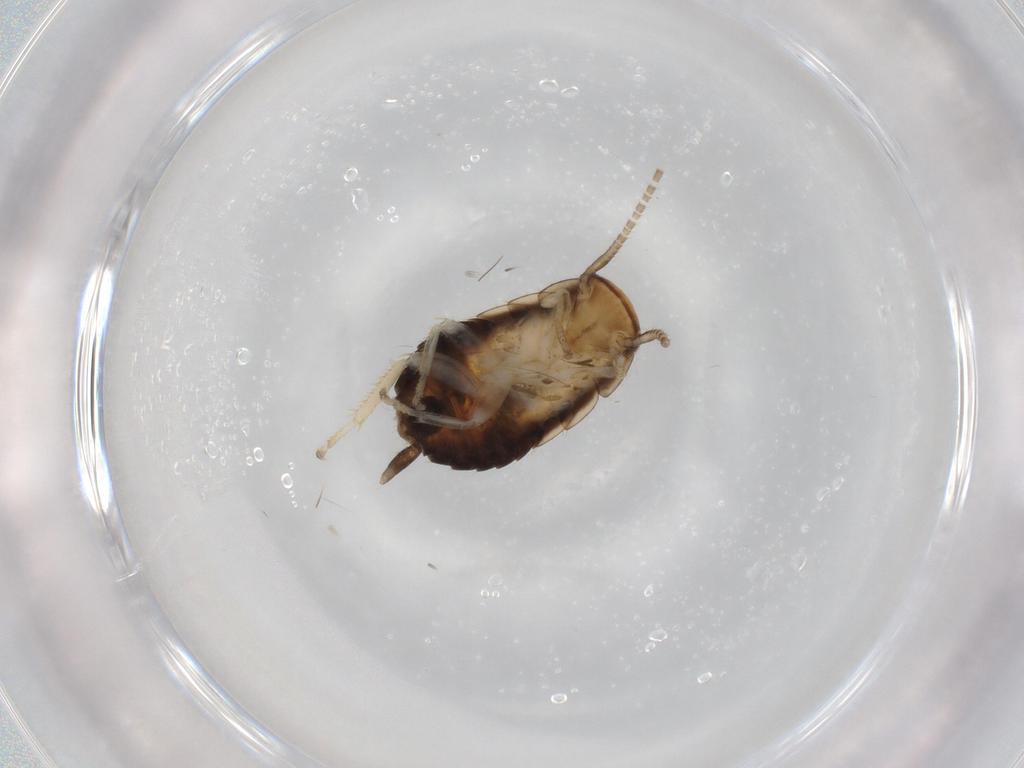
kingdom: Animalia
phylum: Arthropoda
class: Insecta
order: Blattodea
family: Ectobiidae
